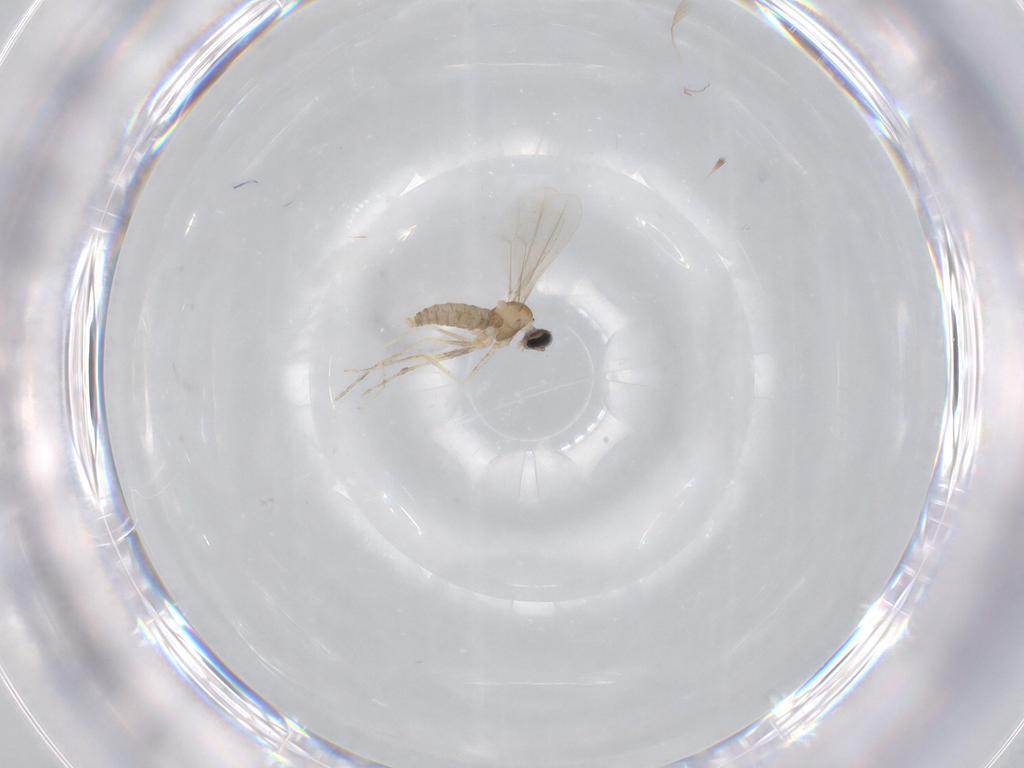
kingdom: Animalia
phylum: Arthropoda
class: Insecta
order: Diptera
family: Cecidomyiidae
